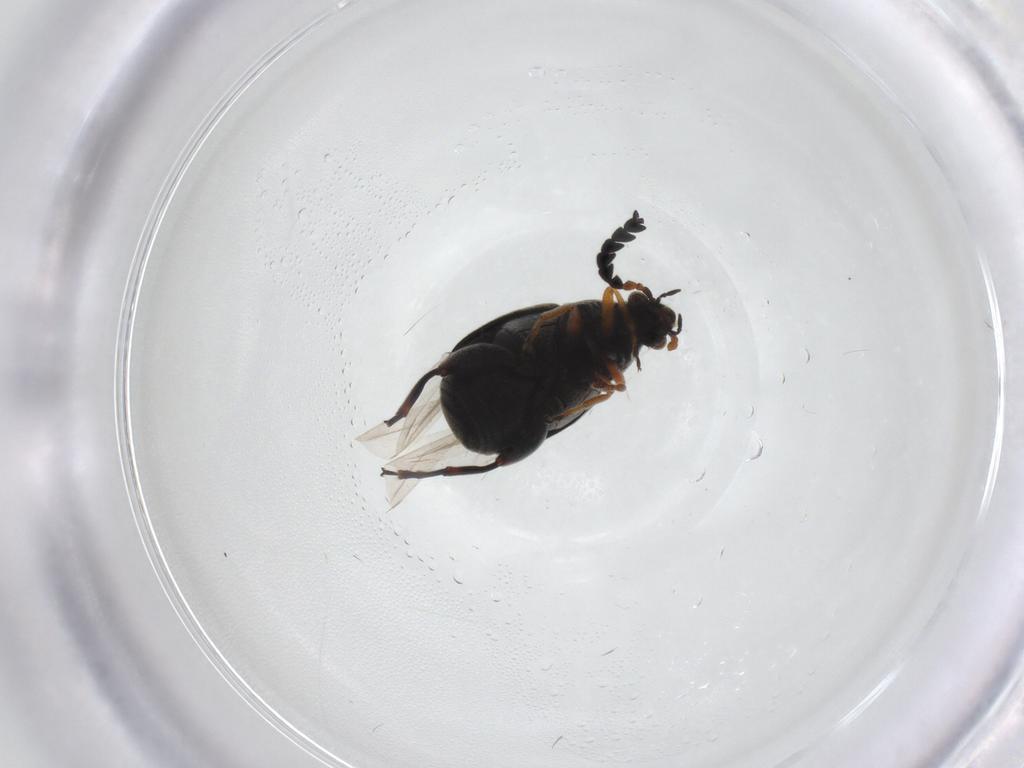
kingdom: Animalia
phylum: Arthropoda
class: Insecta
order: Coleoptera
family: Chrysomelidae
